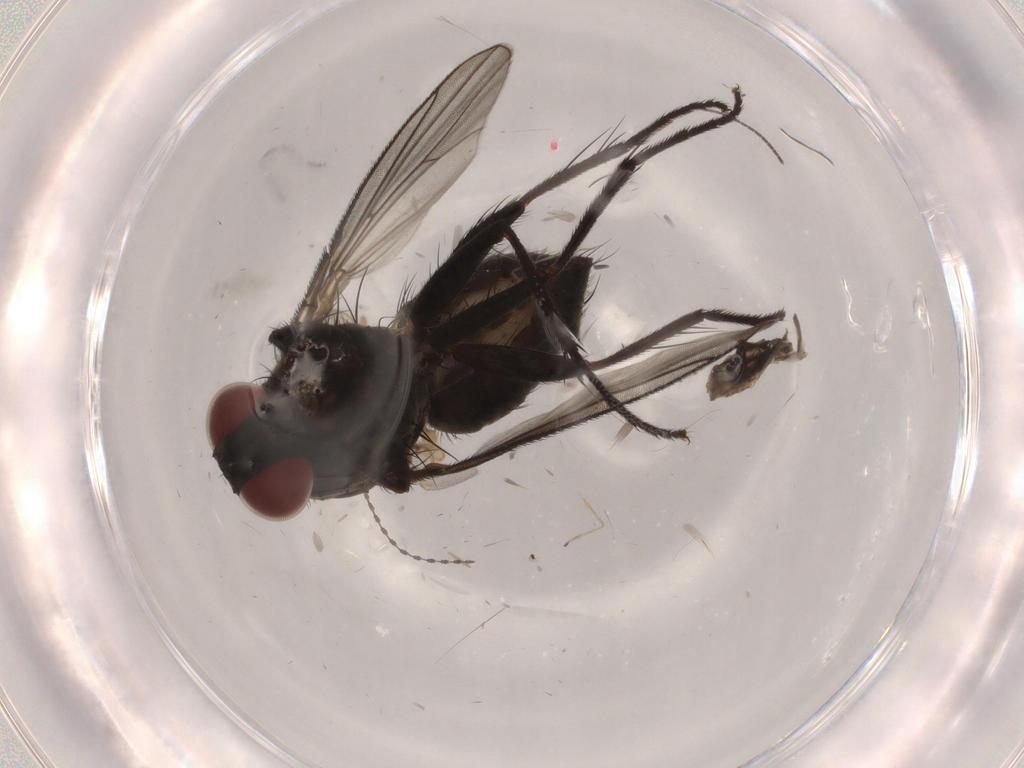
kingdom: Animalia
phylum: Arthropoda
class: Insecta
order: Diptera
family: Muscidae
